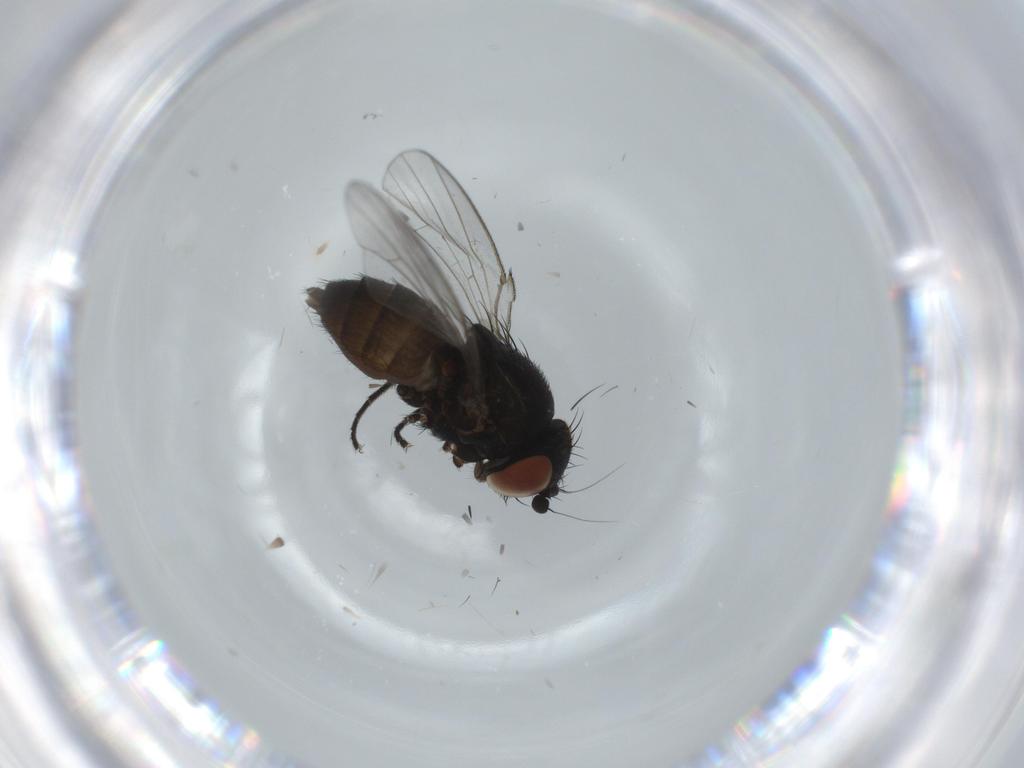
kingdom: Animalia
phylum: Arthropoda
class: Insecta
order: Diptera
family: Milichiidae
